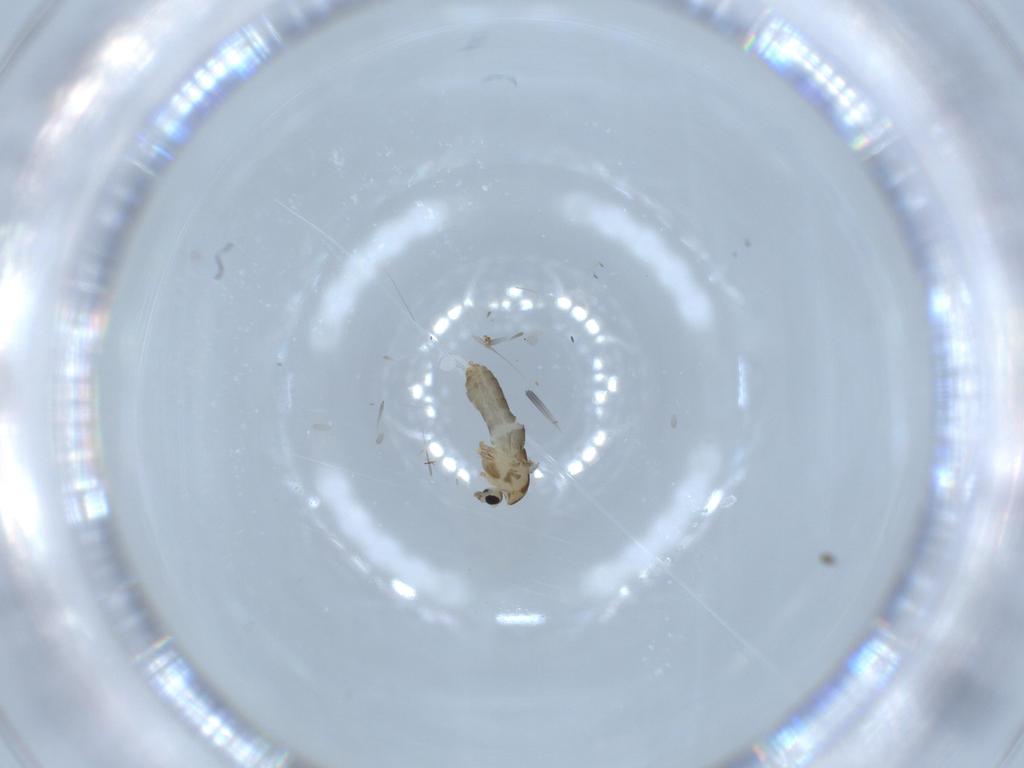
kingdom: Animalia
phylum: Arthropoda
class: Insecta
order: Diptera
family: Chironomidae
